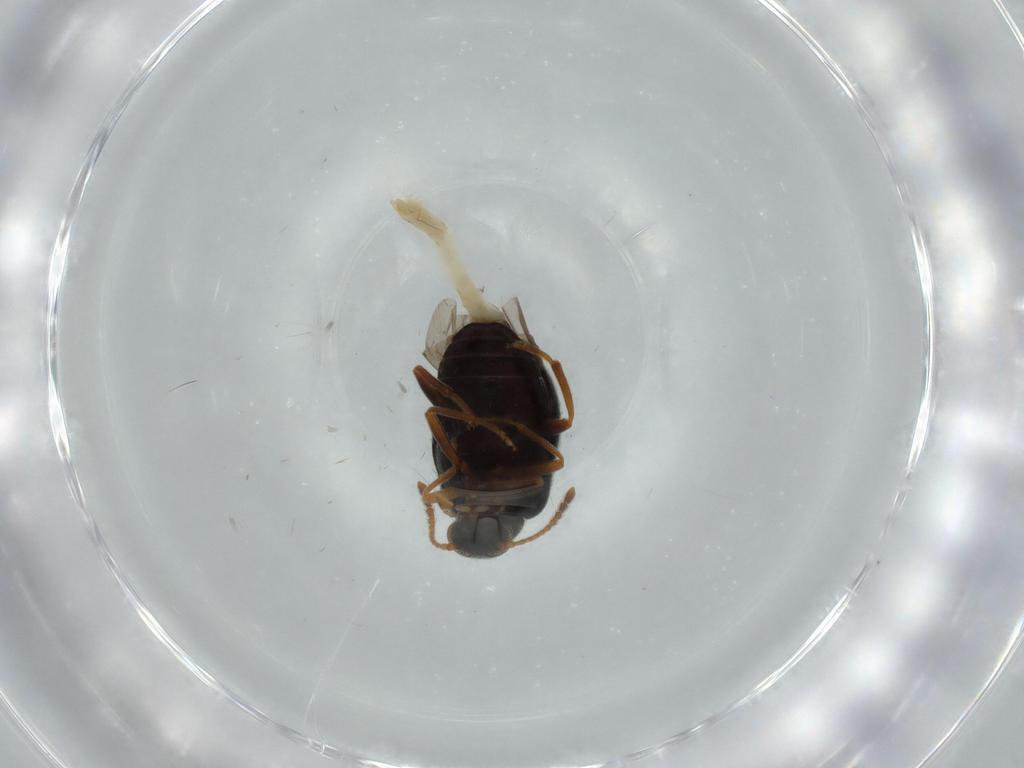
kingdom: Animalia
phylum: Arthropoda
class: Insecta
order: Coleoptera
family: Aderidae
